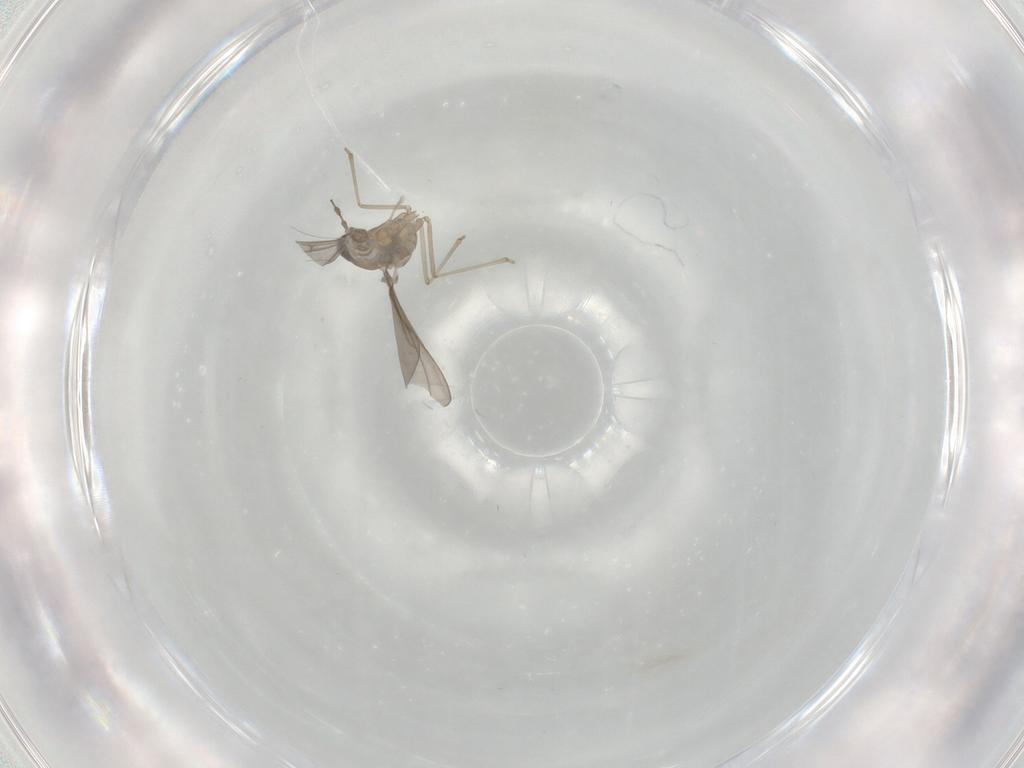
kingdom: Animalia
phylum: Arthropoda
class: Insecta
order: Diptera
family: Chironomidae
